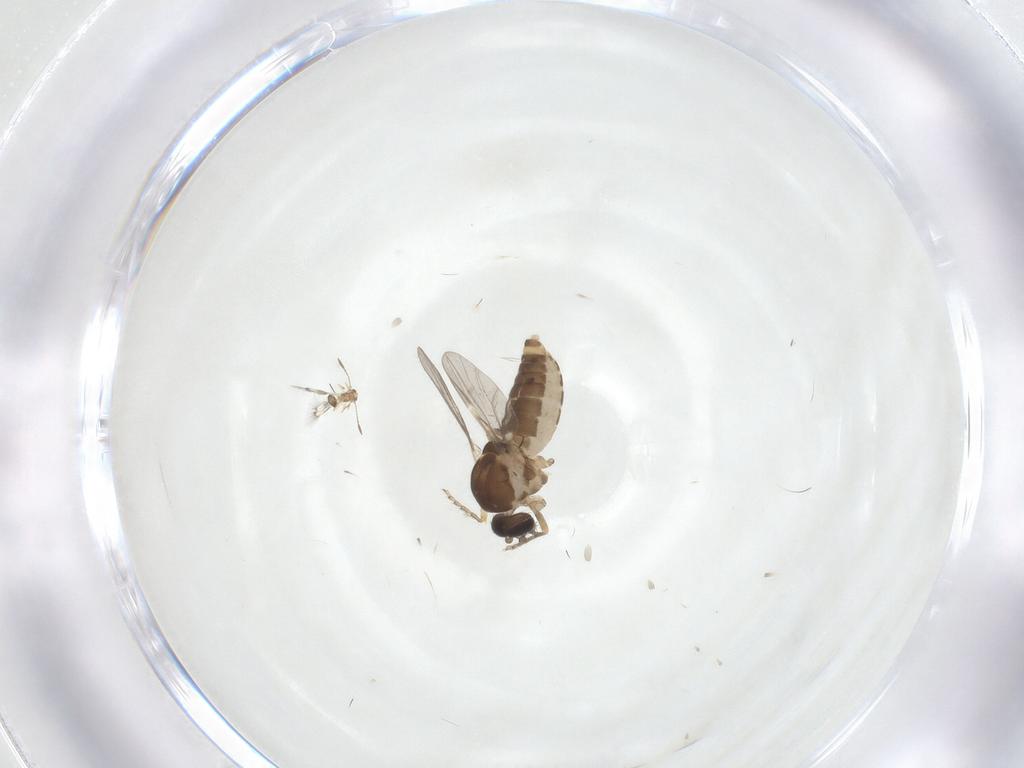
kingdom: Animalia
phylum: Arthropoda
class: Insecta
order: Diptera
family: Ceratopogonidae
